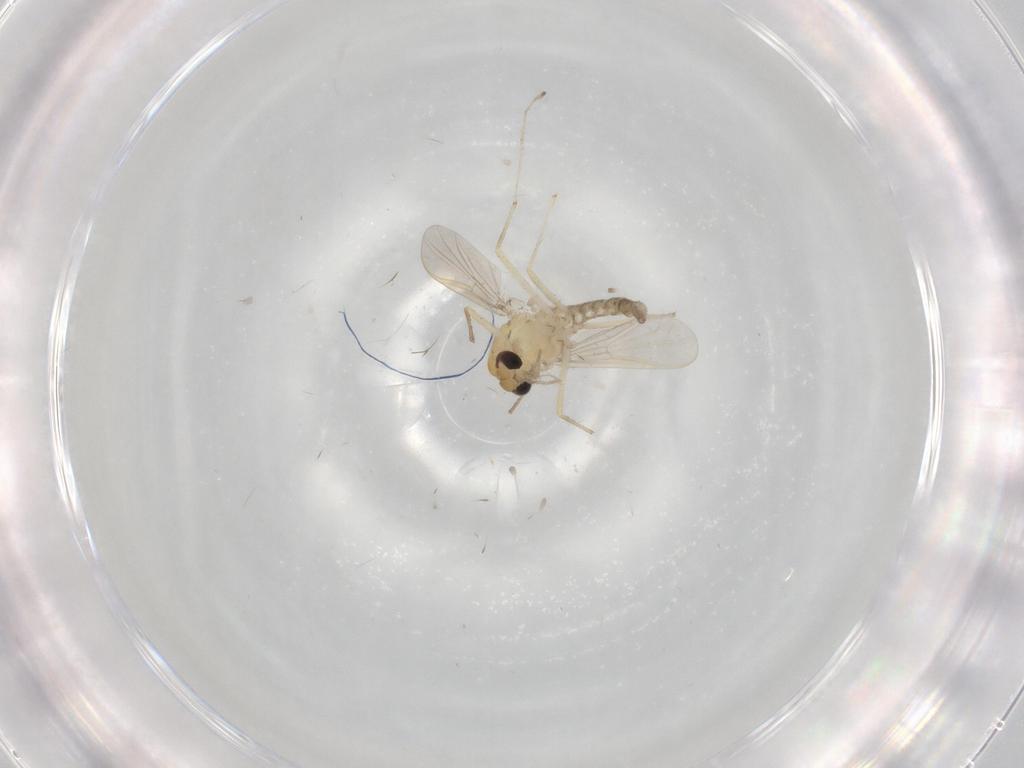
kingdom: Animalia
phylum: Arthropoda
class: Insecta
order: Diptera
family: Chironomidae
